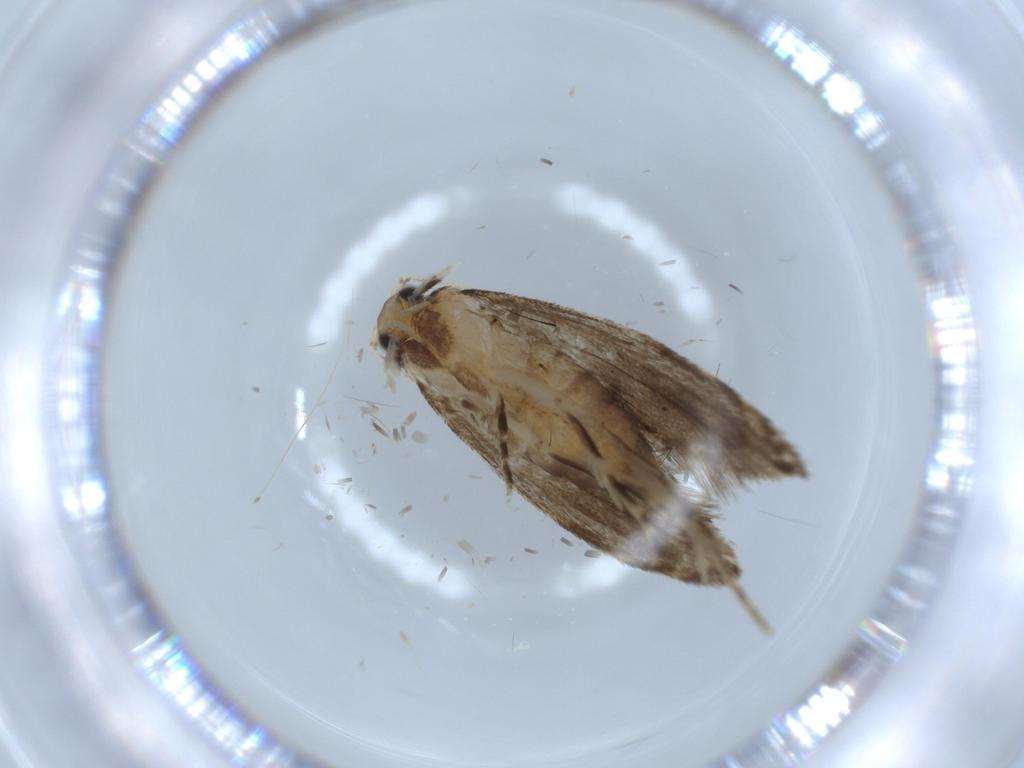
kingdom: Animalia
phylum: Arthropoda
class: Insecta
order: Lepidoptera
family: Tineidae
